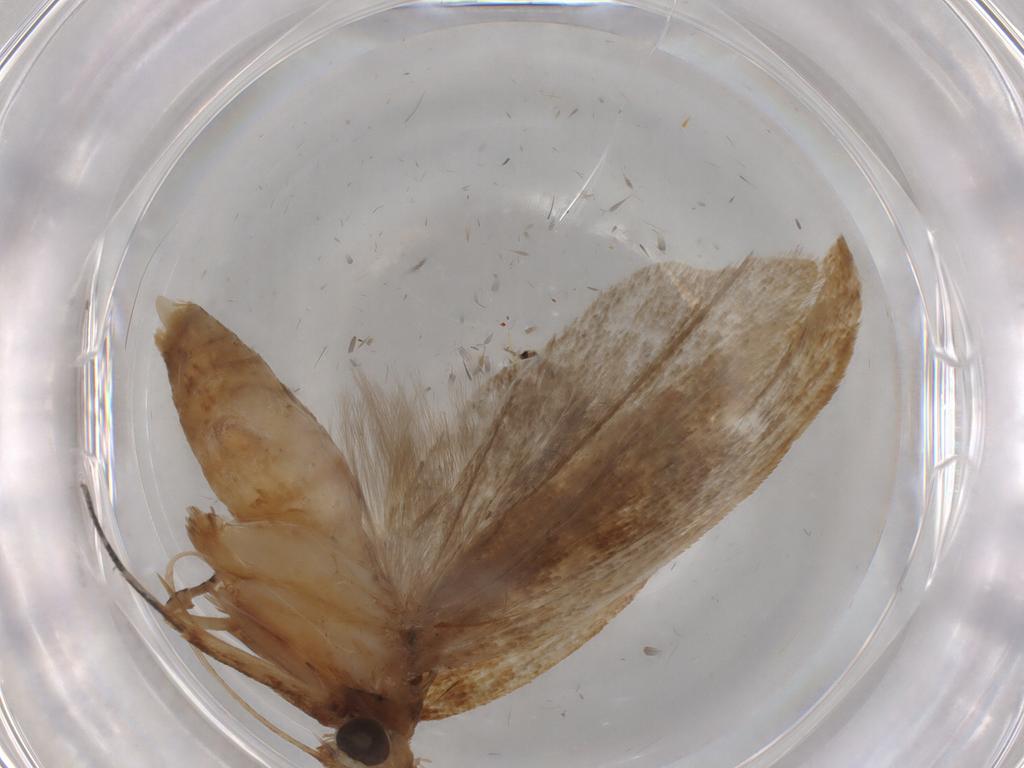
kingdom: Animalia
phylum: Arthropoda
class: Insecta
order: Lepidoptera
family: Gelechiidae
